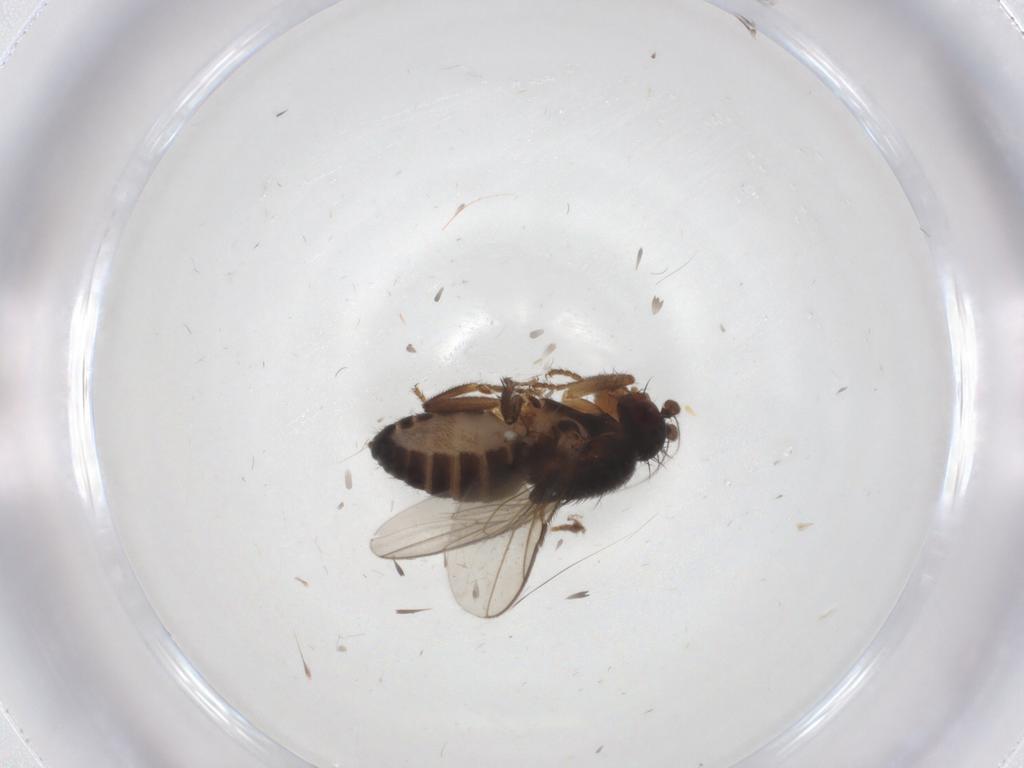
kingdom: Animalia
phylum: Arthropoda
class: Insecta
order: Diptera
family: Sphaeroceridae
